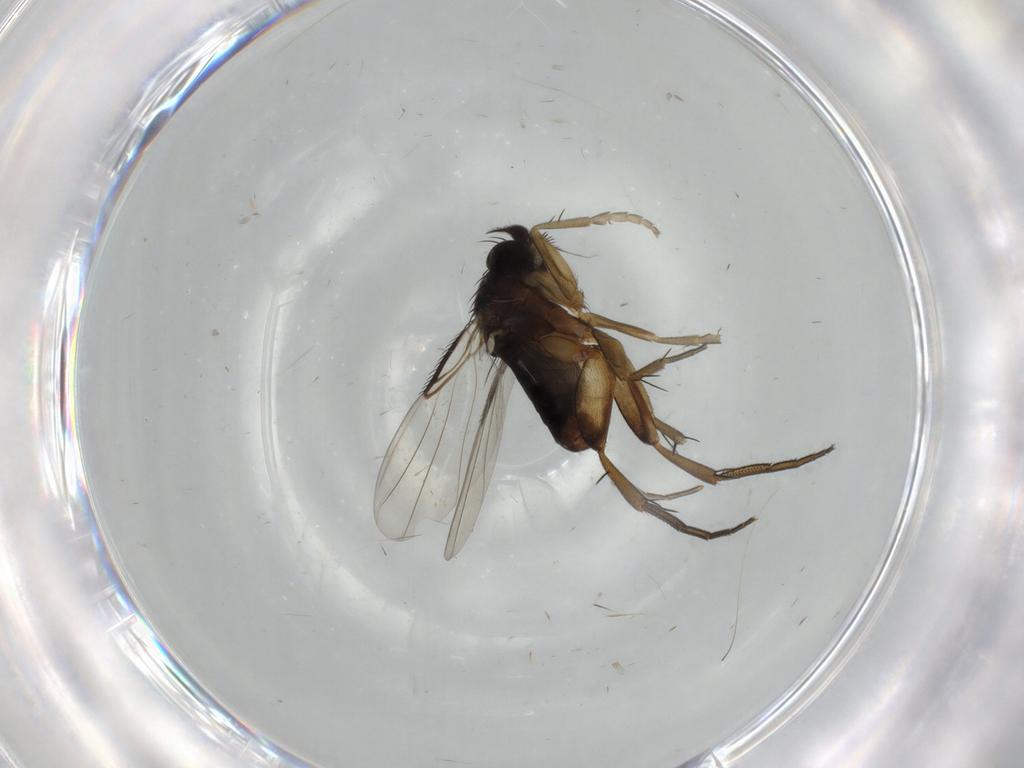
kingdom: Animalia
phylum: Arthropoda
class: Insecta
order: Diptera
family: Phoridae
